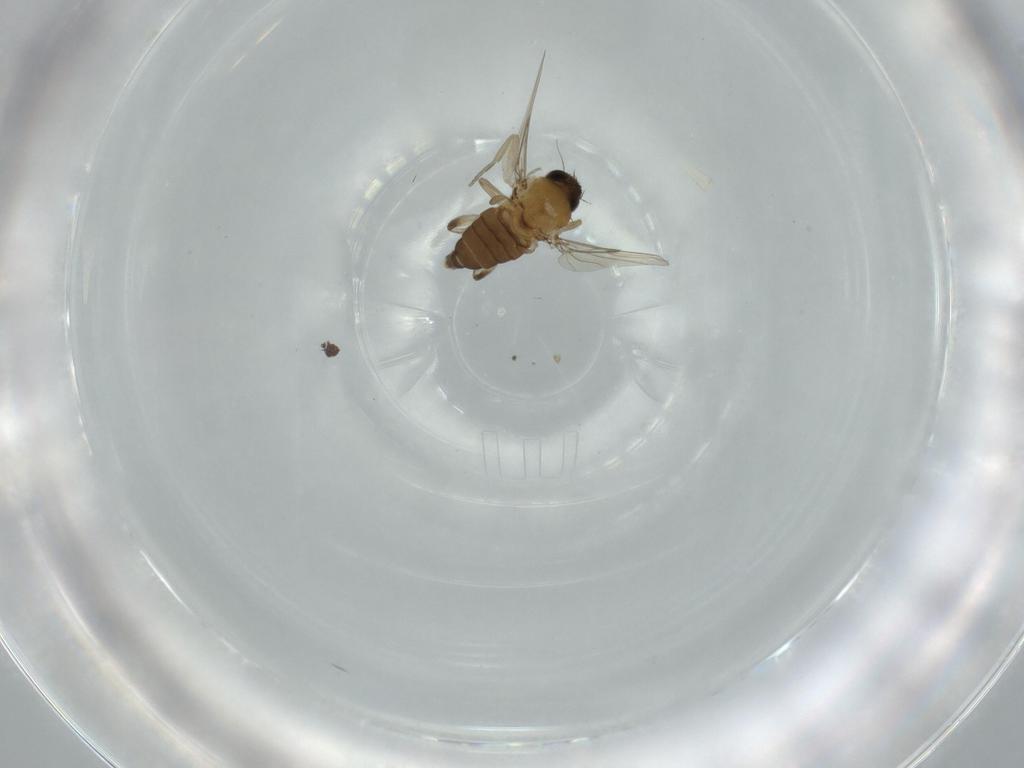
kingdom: Animalia
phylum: Arthropoda
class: Insecta
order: Diptera
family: Phoridae
